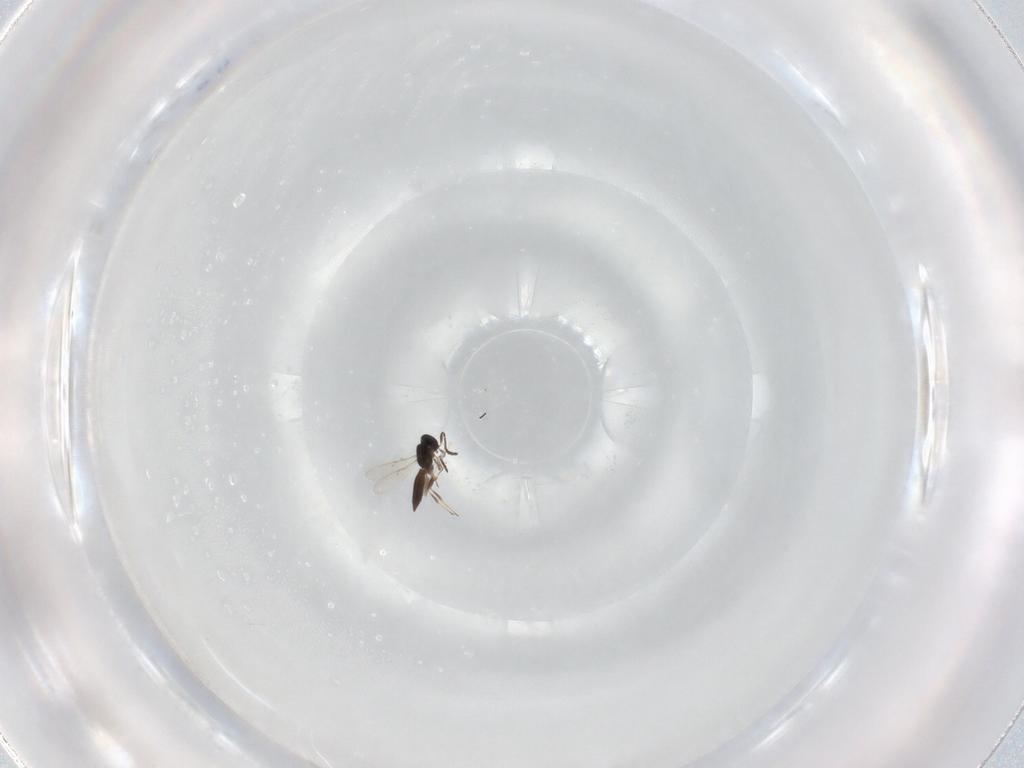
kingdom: Animalia
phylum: Arthropoda
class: Insecta
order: Hymenoptera
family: Scelionidae
